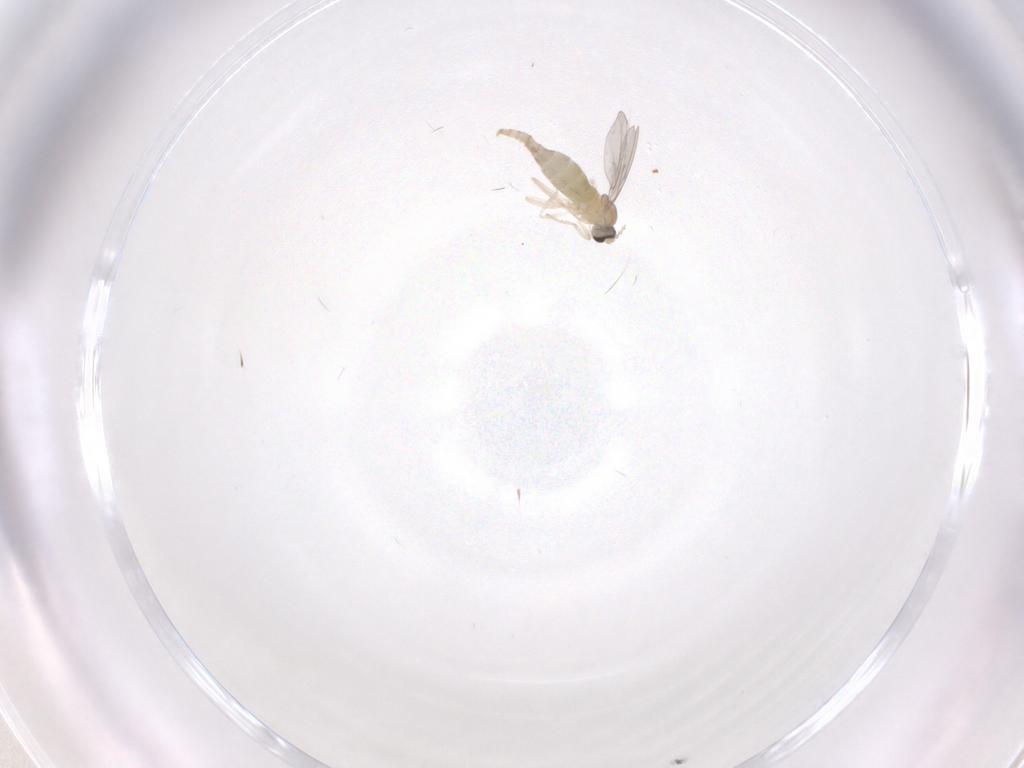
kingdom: Animalia
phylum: Arthropoda
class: Insecta
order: Diptera
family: Cecidomyiidae
